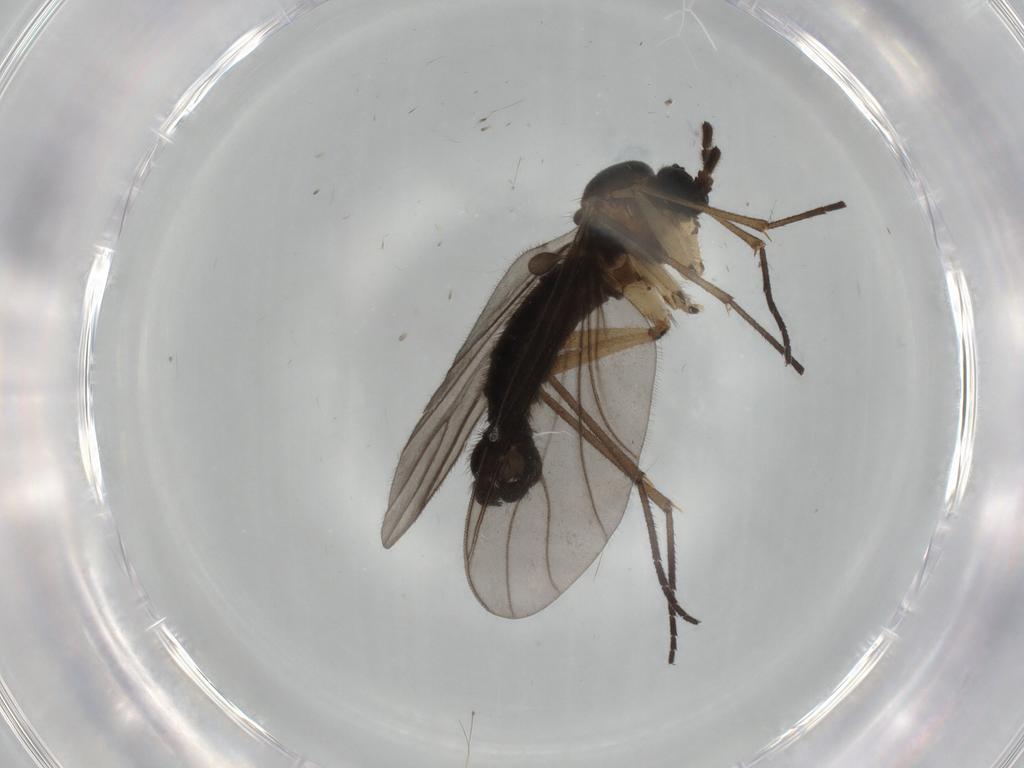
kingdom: Animalia
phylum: Arthropoda
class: Insecta
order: Diptera
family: Sciaridae
